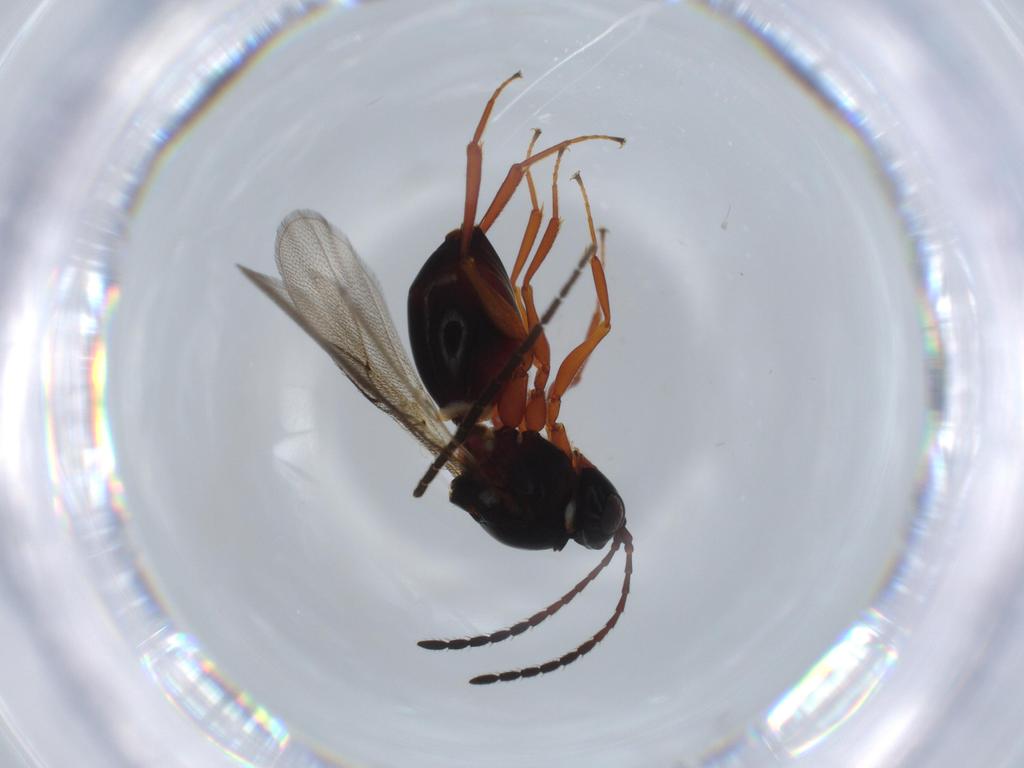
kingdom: Animalia
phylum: Arthropoda
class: Insecta
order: Hymenoptera
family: Figitidae
